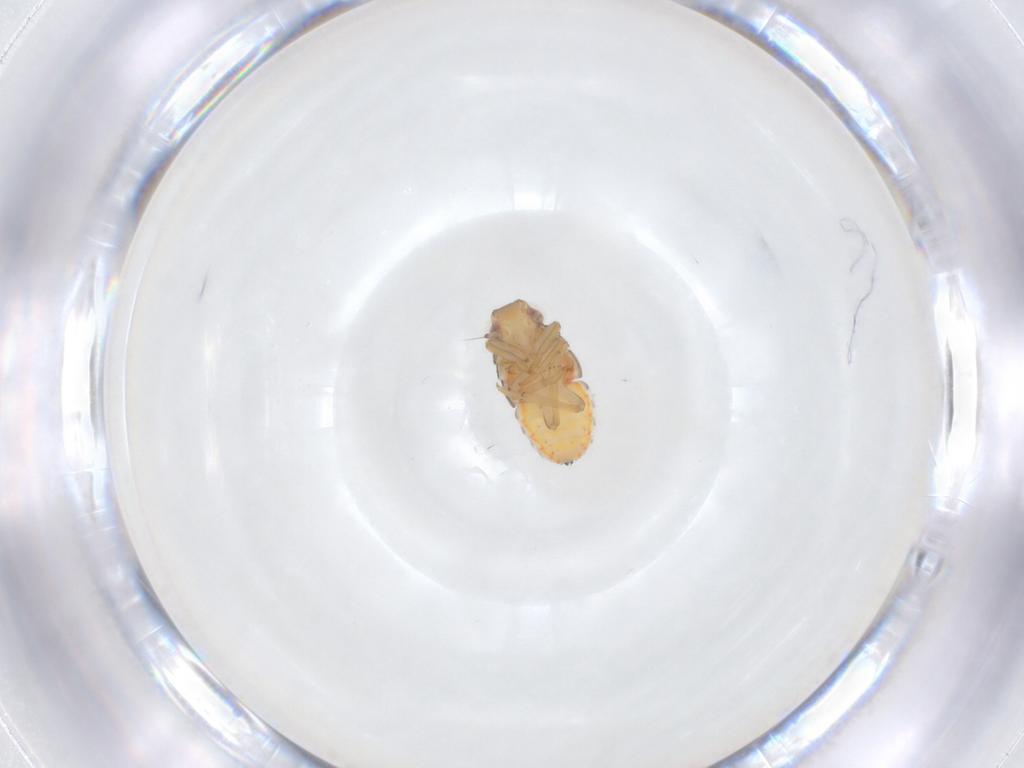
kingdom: Animalia
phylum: Arthropoda
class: Insecta
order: Hemiptera
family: Issidae
